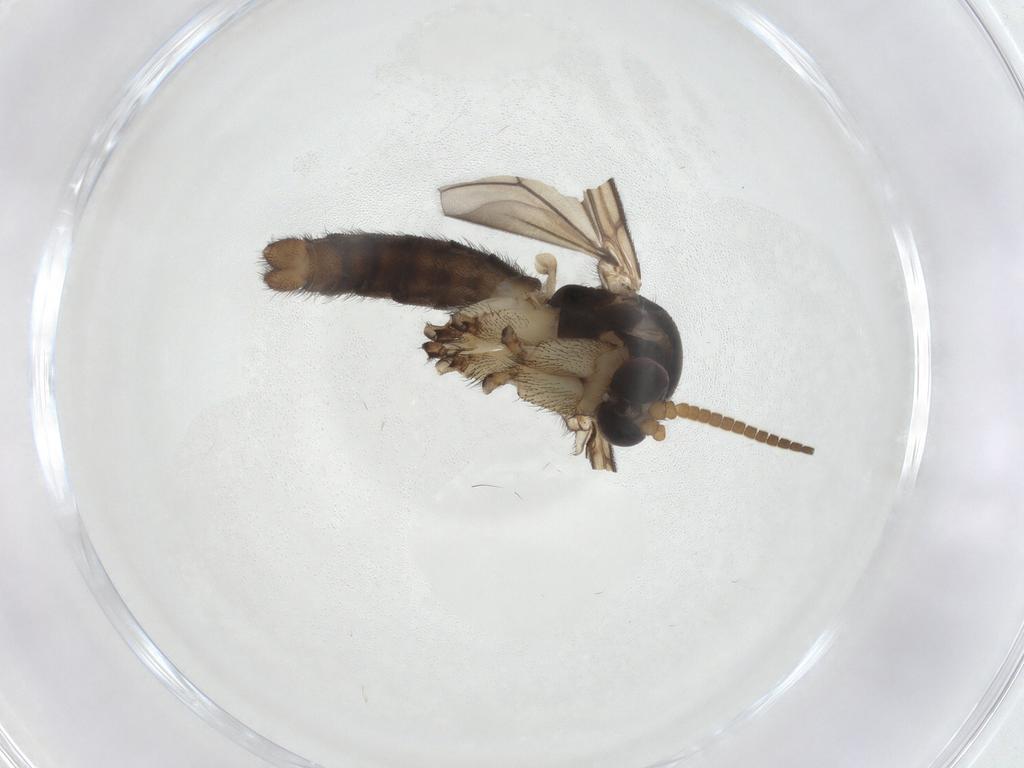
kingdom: Animalia
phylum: Arthropoda
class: Insecta
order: Diptera
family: Mycetophilidae
